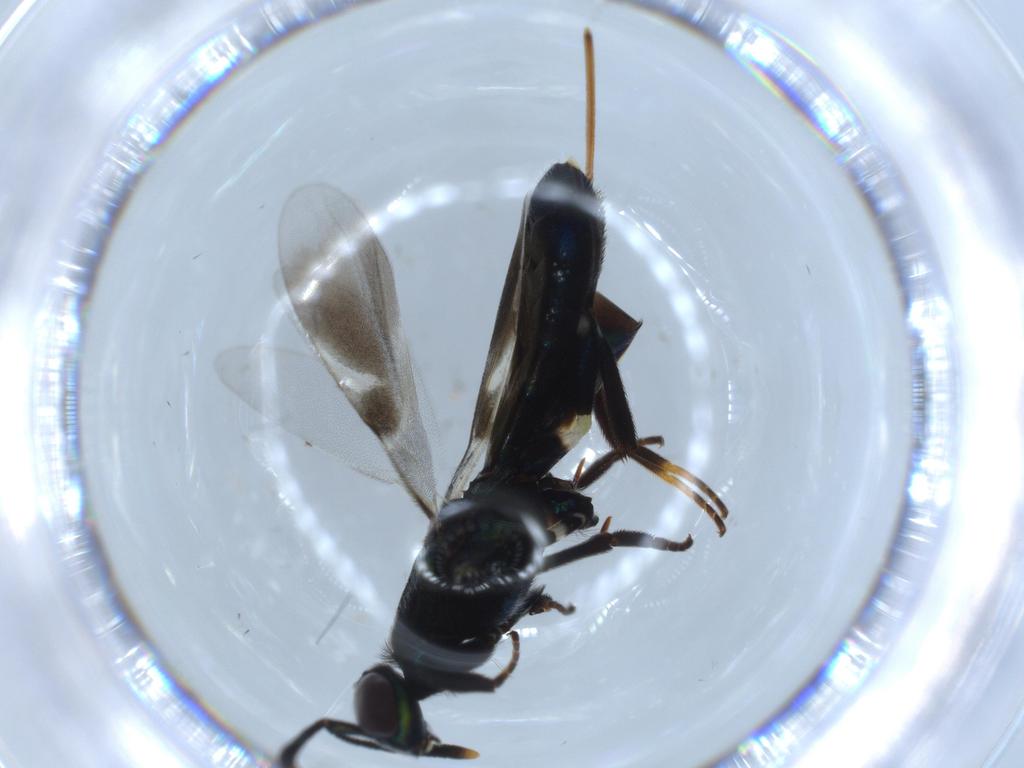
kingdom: Animalia
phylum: Arthropoda
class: Insecta
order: Hymenoptera
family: Eupelmidae
